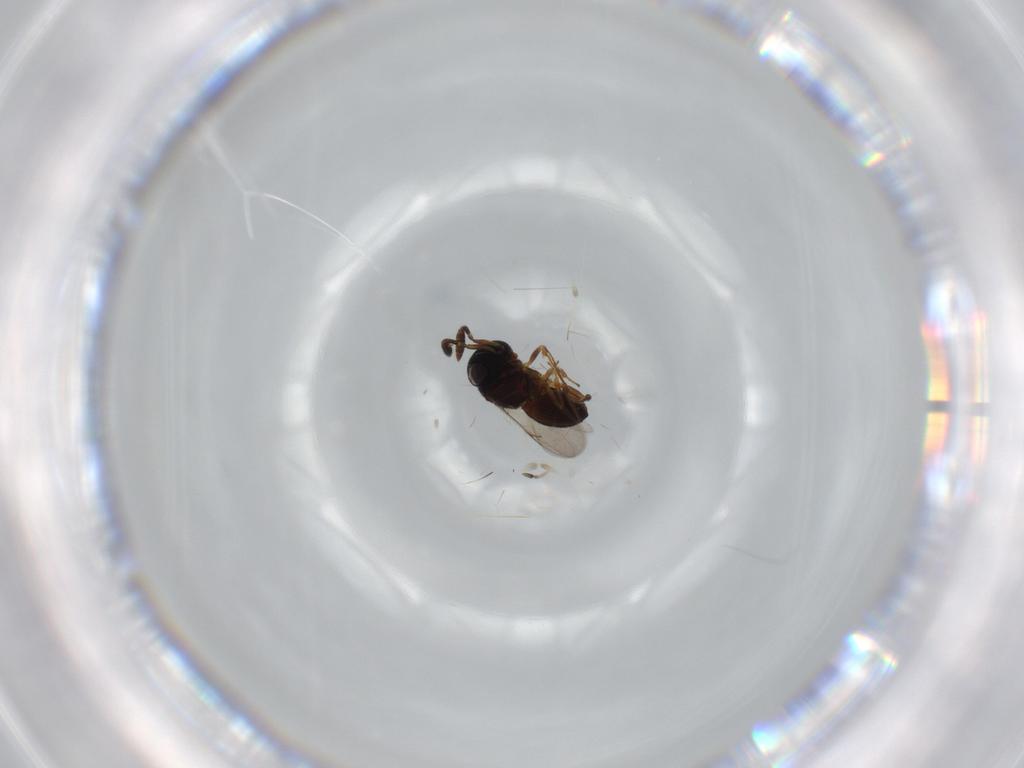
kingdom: Animalia
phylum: Arthropoda
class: Insecta
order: Hymenoptera
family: Scelionidae
